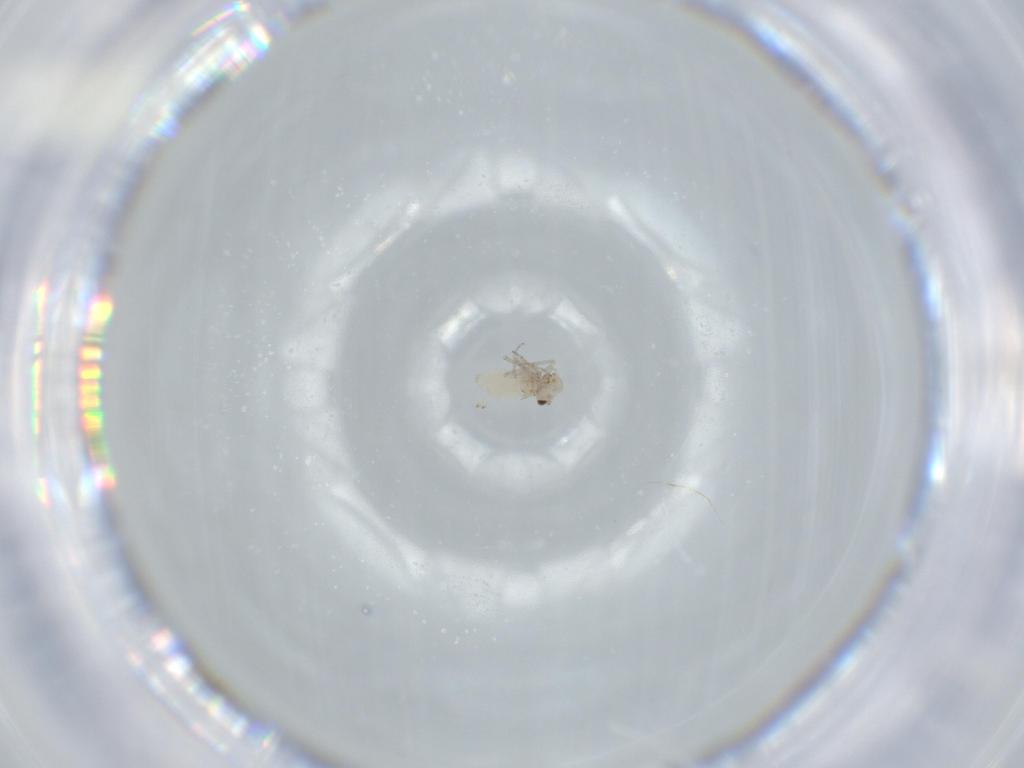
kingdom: Animalia
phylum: Arthropoda
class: Insecta
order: Psocodea
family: Lachesillidae
